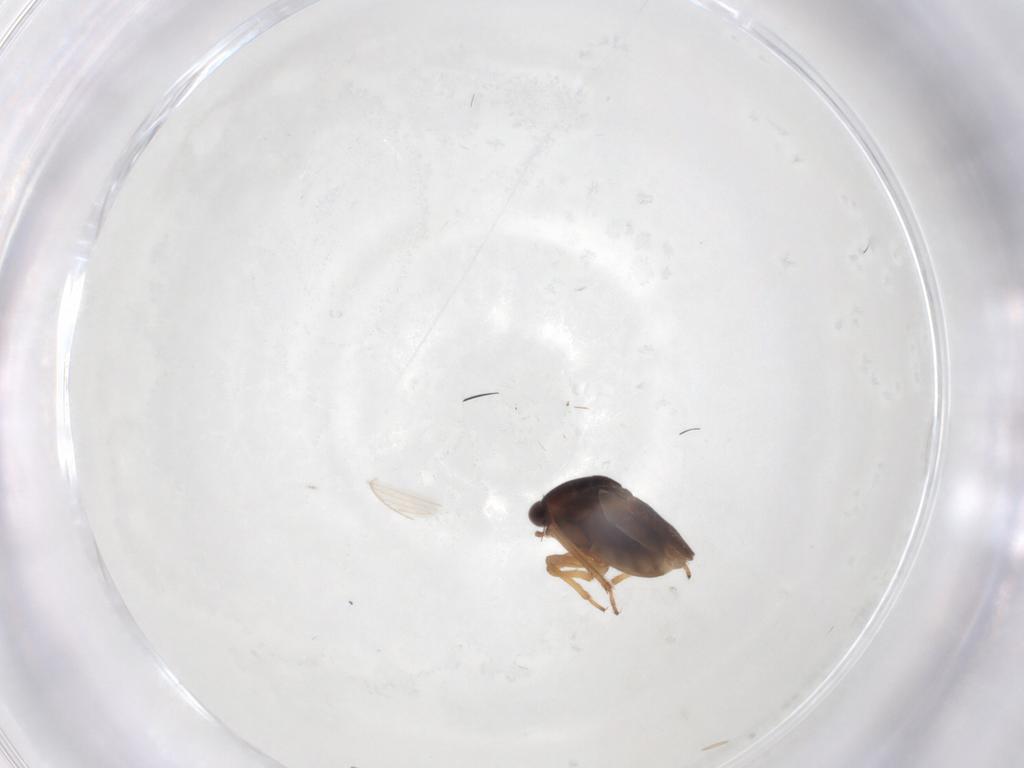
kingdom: Animalia
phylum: Arthropoda
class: Insecta
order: Hemiptera
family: Schizopteridae
